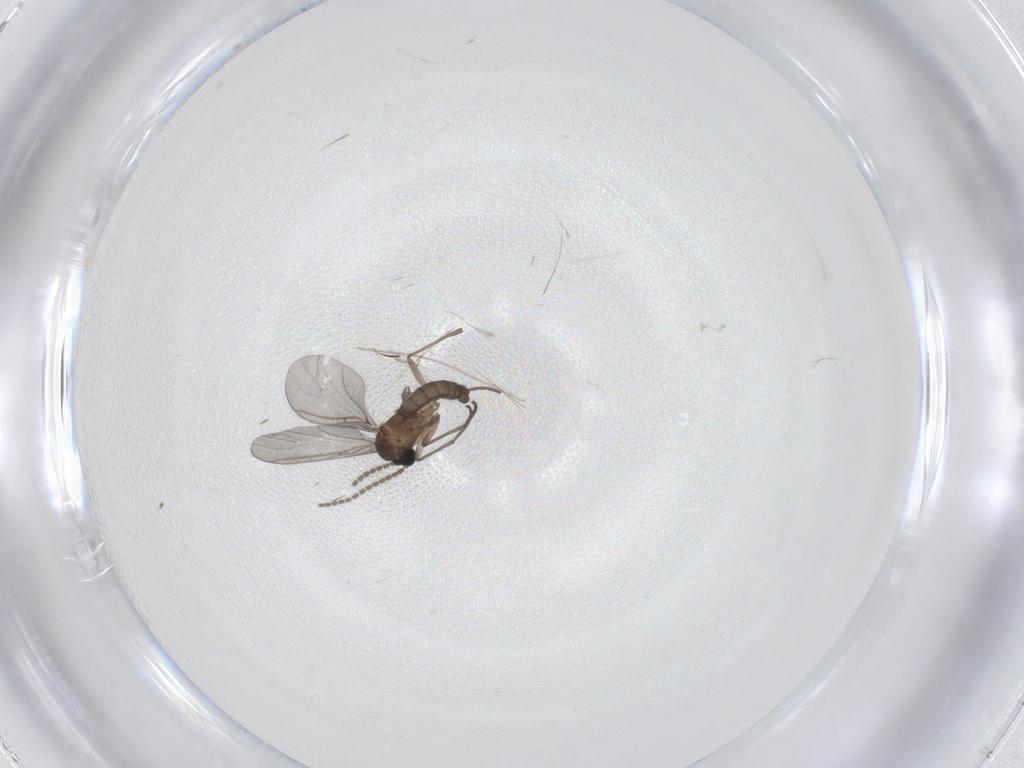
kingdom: Animalia
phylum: Arthropoda
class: Insecta
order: Diptera
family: Sciaridae
